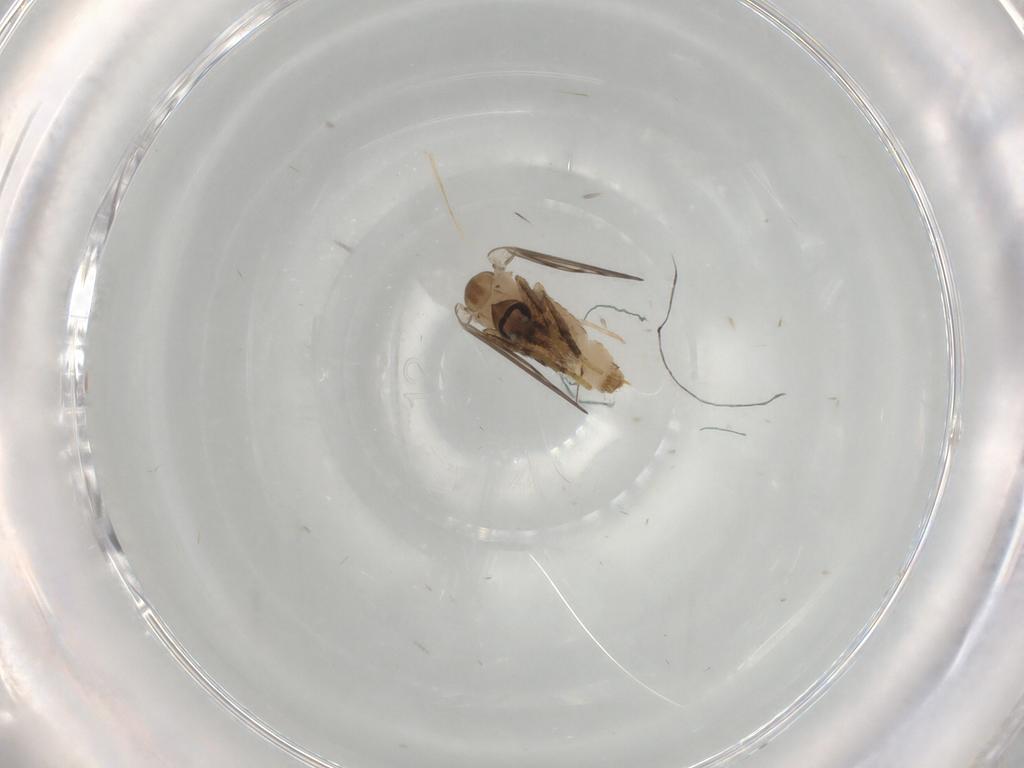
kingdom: Animalia
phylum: Arthropoda
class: Insecta
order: Diptera
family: Psychodidae
